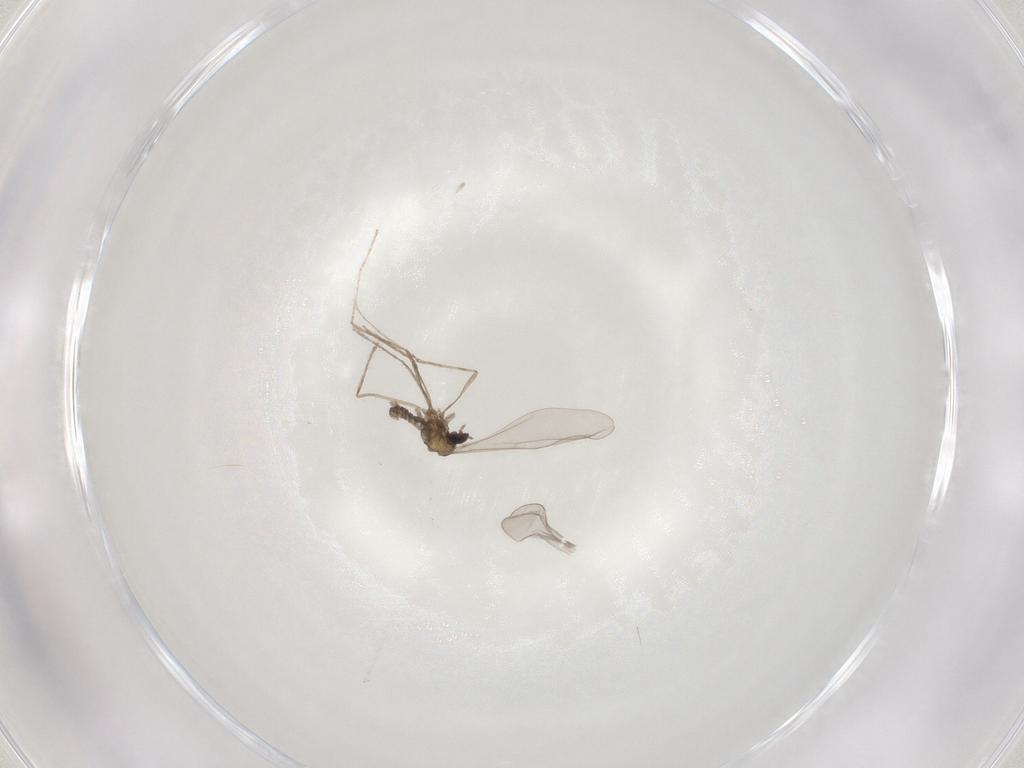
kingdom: Animalia
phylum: Arthropoda
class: Insecta
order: Diptera
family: Cecidomyiidae
